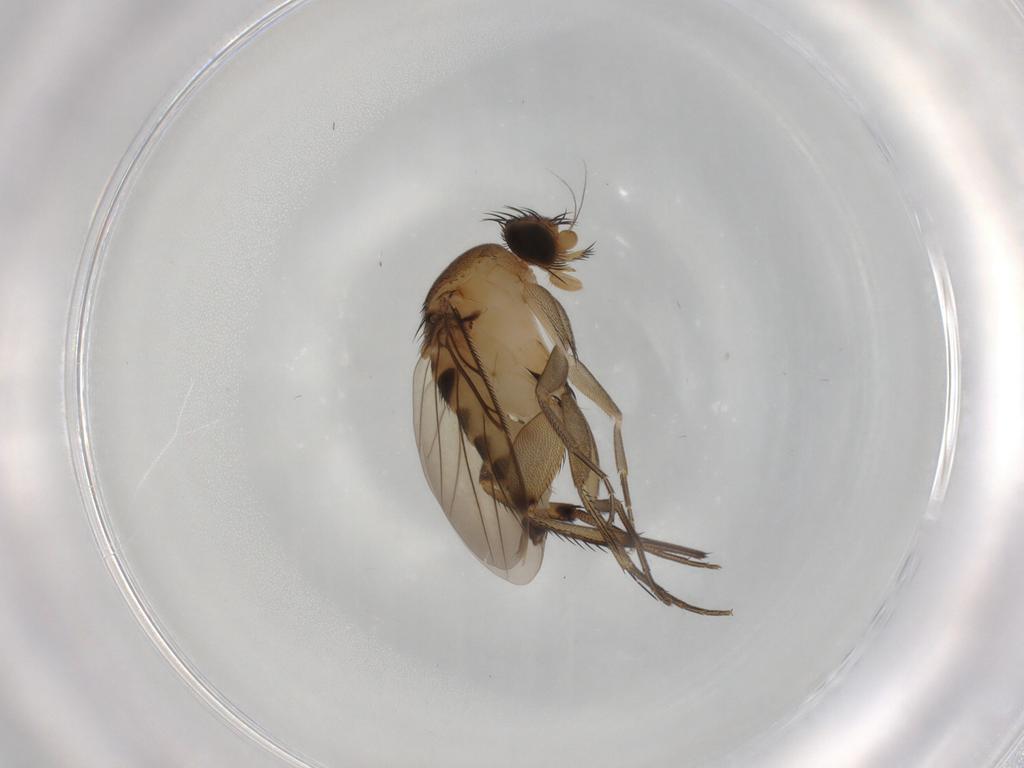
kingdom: Animalia
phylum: Arthropoda
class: Insecta
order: Diptera
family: Phoridae
